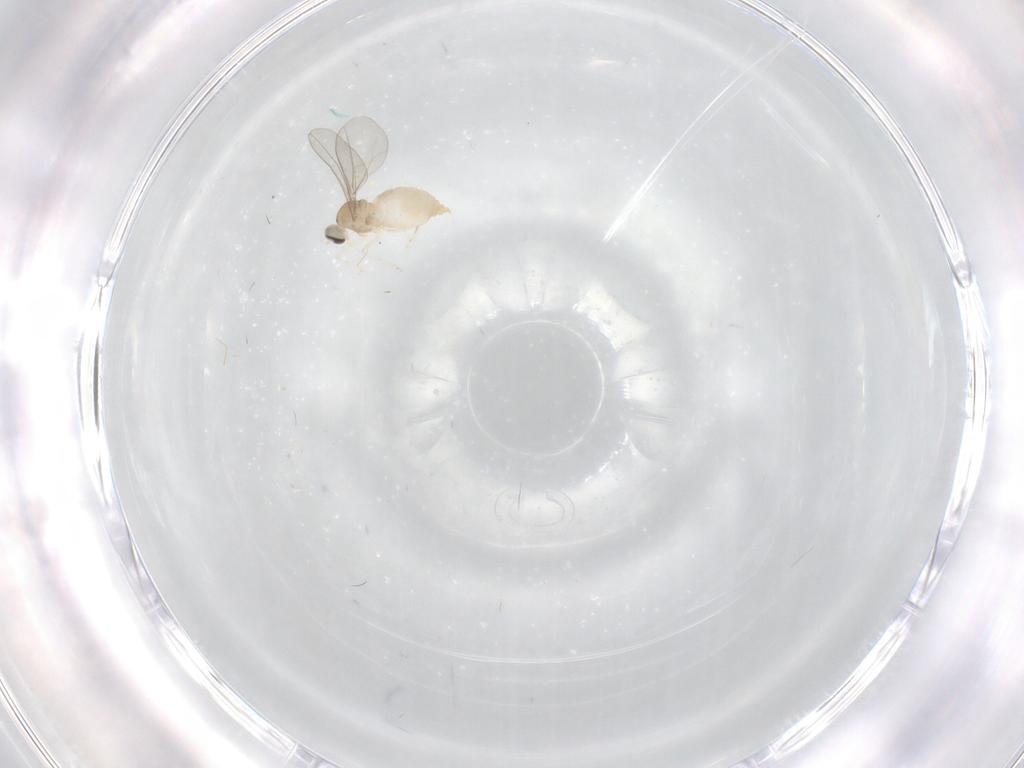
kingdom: Animalia
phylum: Arthropoda
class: Insecta
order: Diptera
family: Cecidomyiidae
